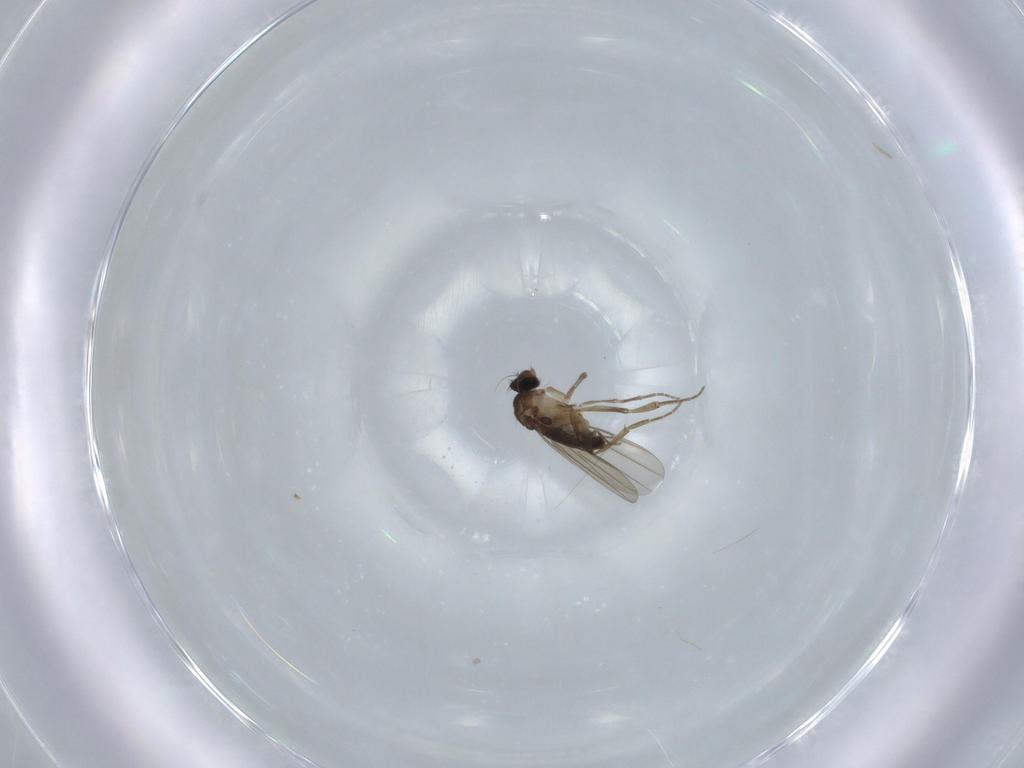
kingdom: Animalia
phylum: Arthropoda
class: Insecta
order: Diptera
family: Phoridae
